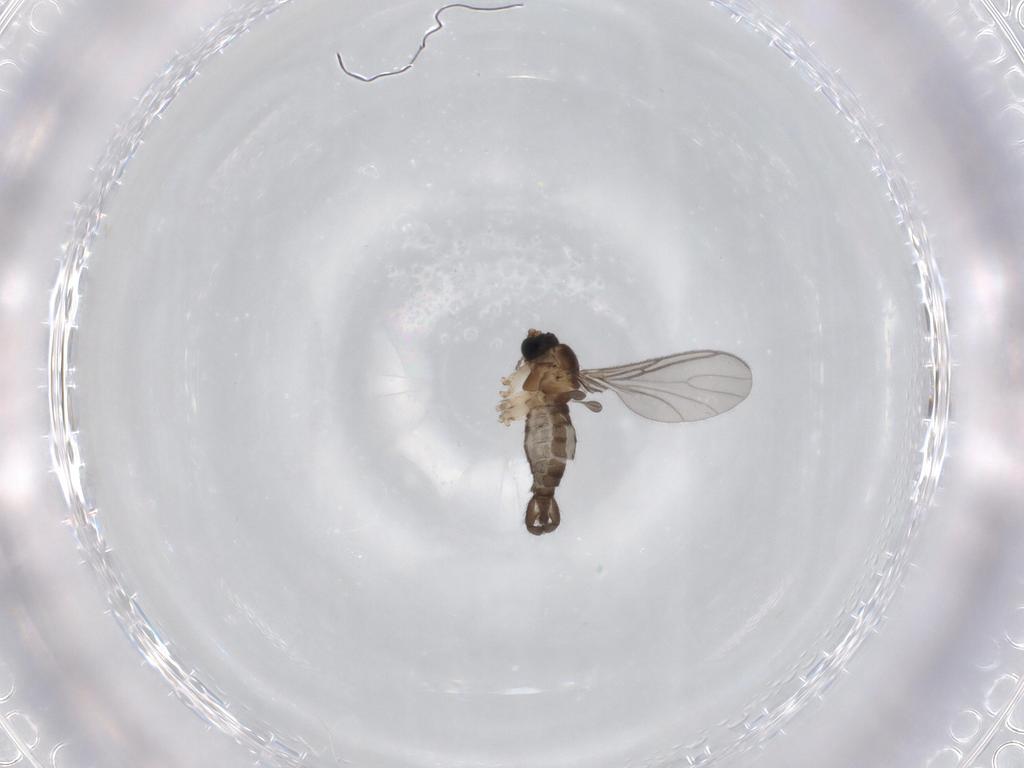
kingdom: Animalia
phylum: Arthropoda
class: Insecta
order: Diptera
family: Sciaridae
